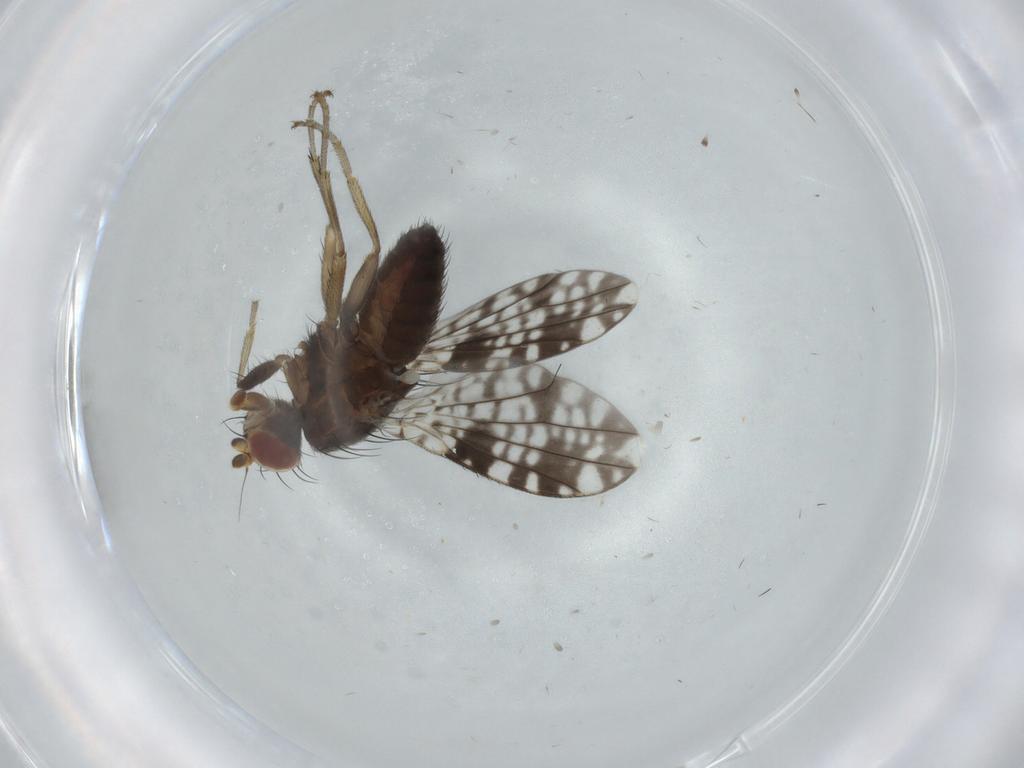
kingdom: Animalia
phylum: Arthropoda
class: Insecta
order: Diptera
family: Tephritidae
